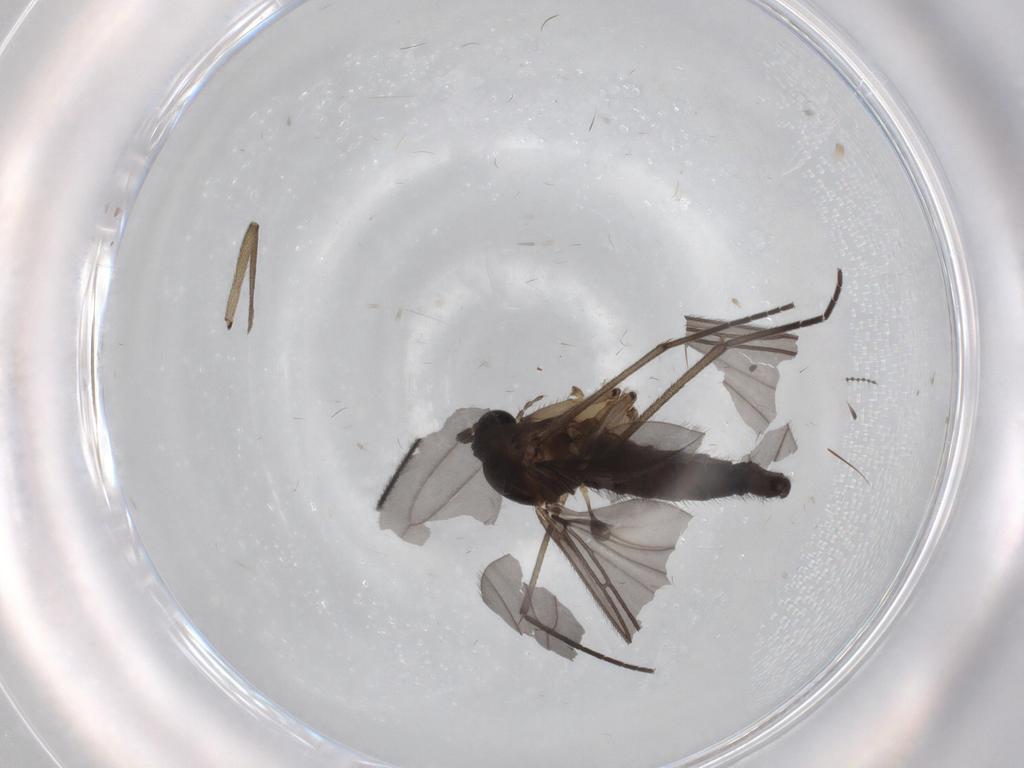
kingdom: Animalia
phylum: Arthropoda
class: Insecta
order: Diptera
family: Sciaridae
